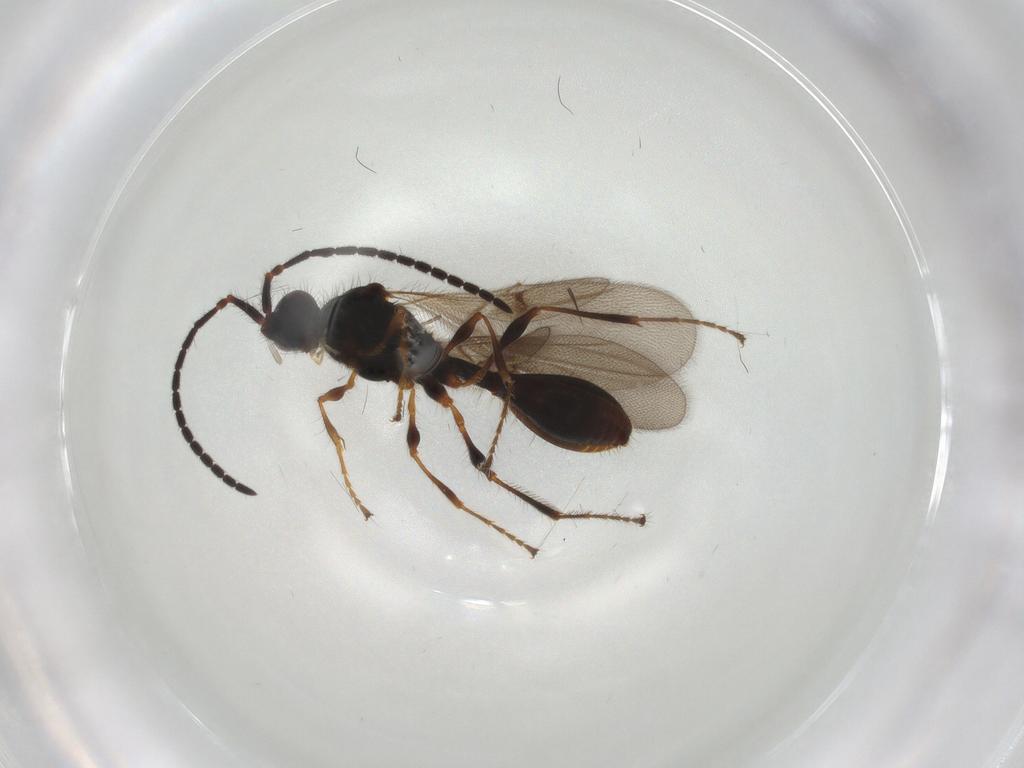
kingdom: Animalia
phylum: Arthropoda
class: Insecta
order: Hymenoptera
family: Diapriidae
